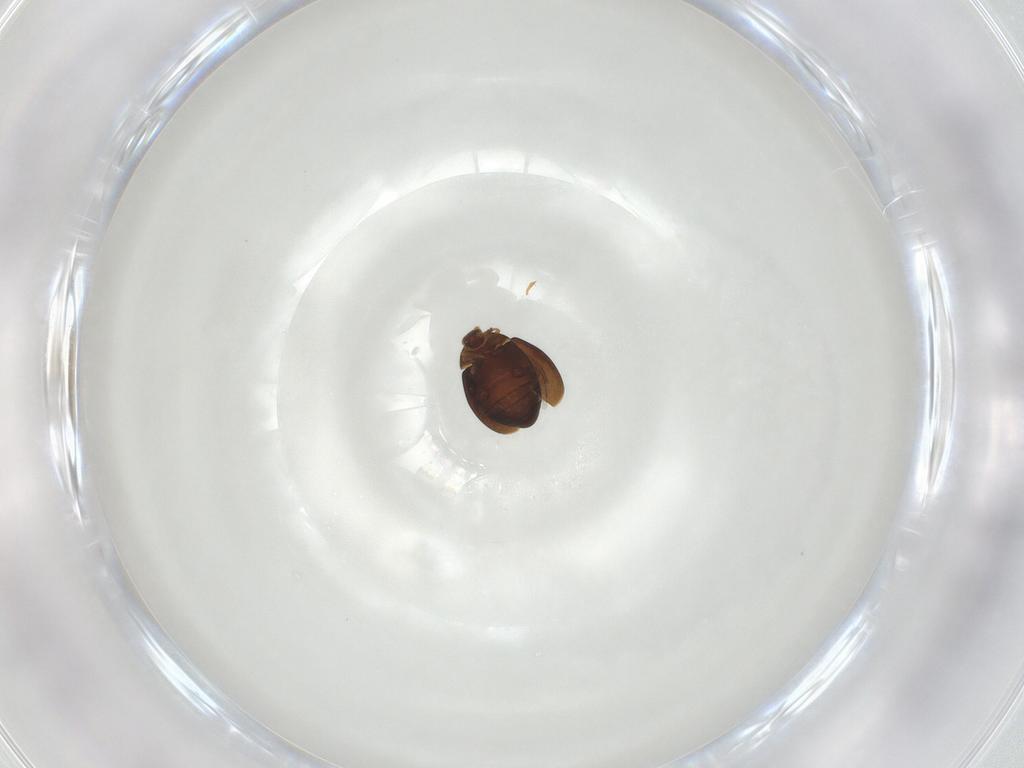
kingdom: Animalia
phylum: Arthropoda
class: Insecta
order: Coleoptera
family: Corylophidae
